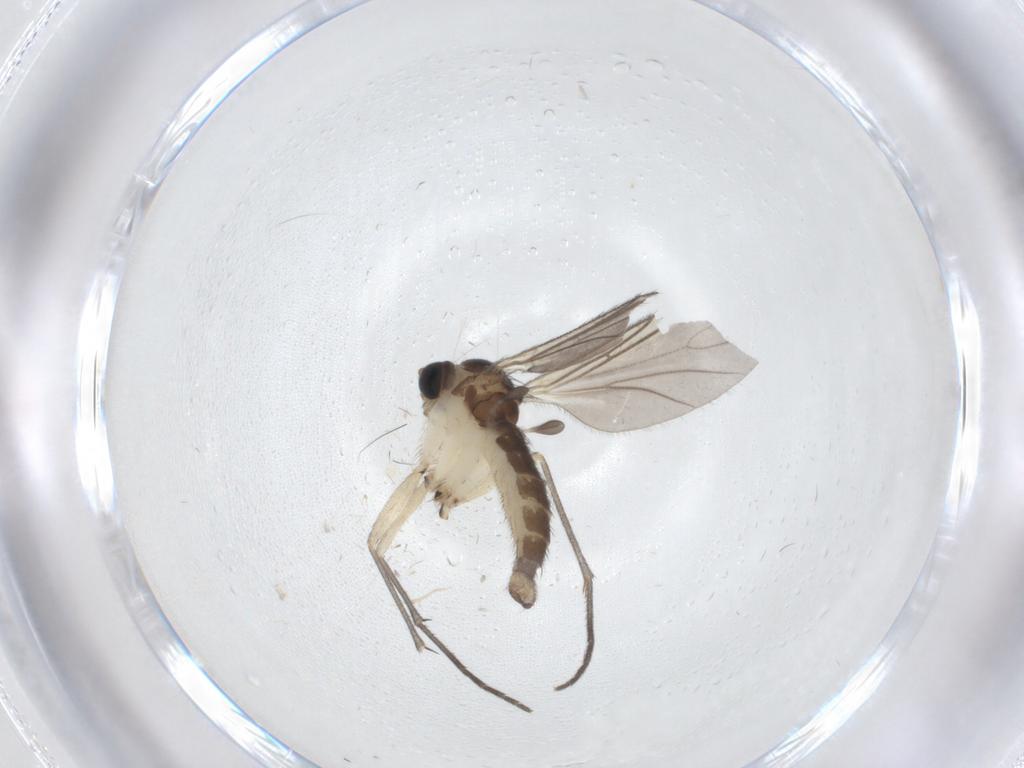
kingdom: Animalia
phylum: Arthropoda
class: Insecta
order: Diptera
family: Sciaridae
